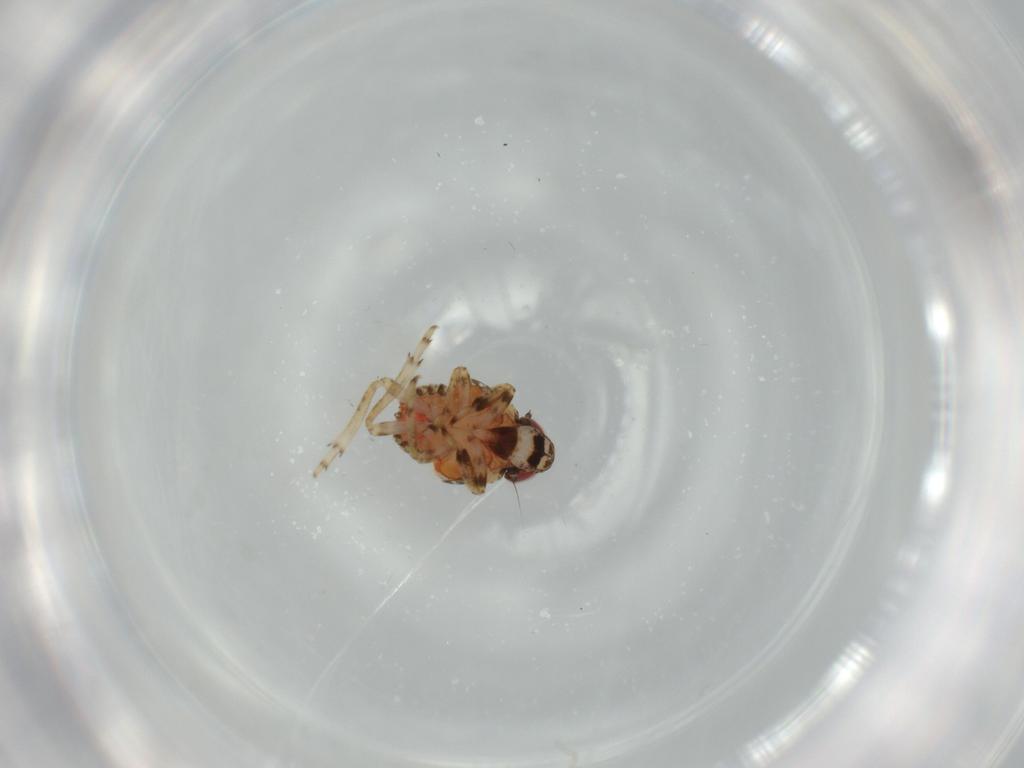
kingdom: Animalia
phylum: Arthropoda
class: Insecta
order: Hemiptera
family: Issidae
